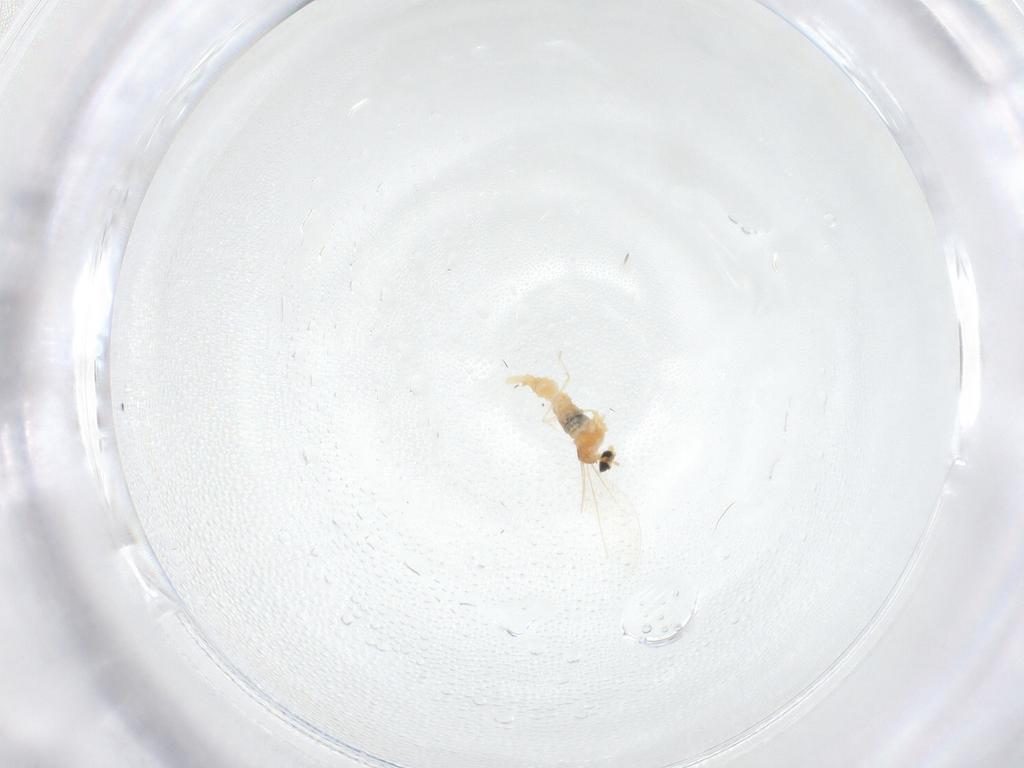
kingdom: Animalia
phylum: Arthropoda
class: Insecta
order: Diptera
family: Cecidomyiidae
